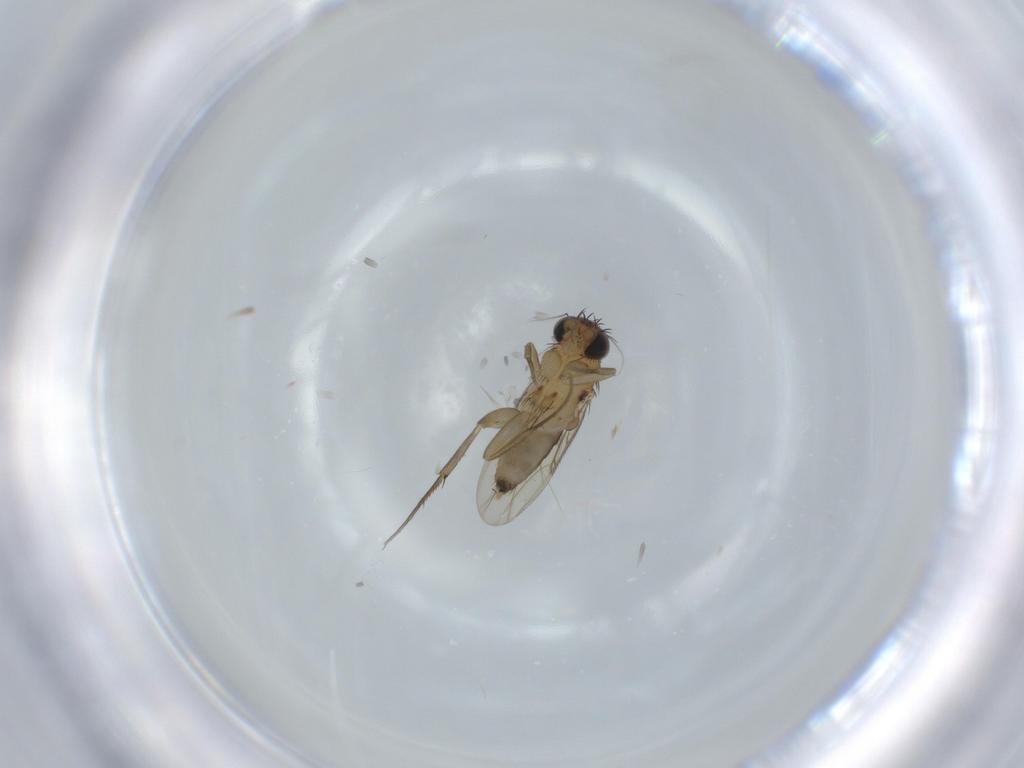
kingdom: Animalia
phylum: Arthropoda
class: Insecta
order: Diptera
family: Phoridae
